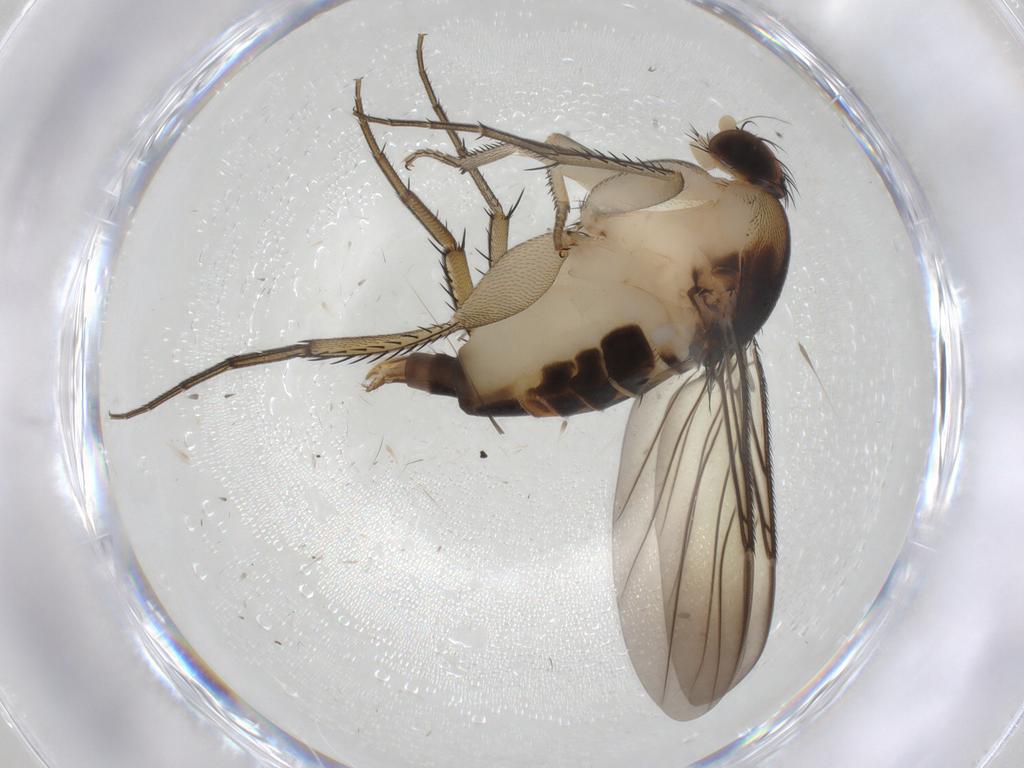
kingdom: Animalia
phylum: Arthropoda
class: Insecta
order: Diptera
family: Phoridae
